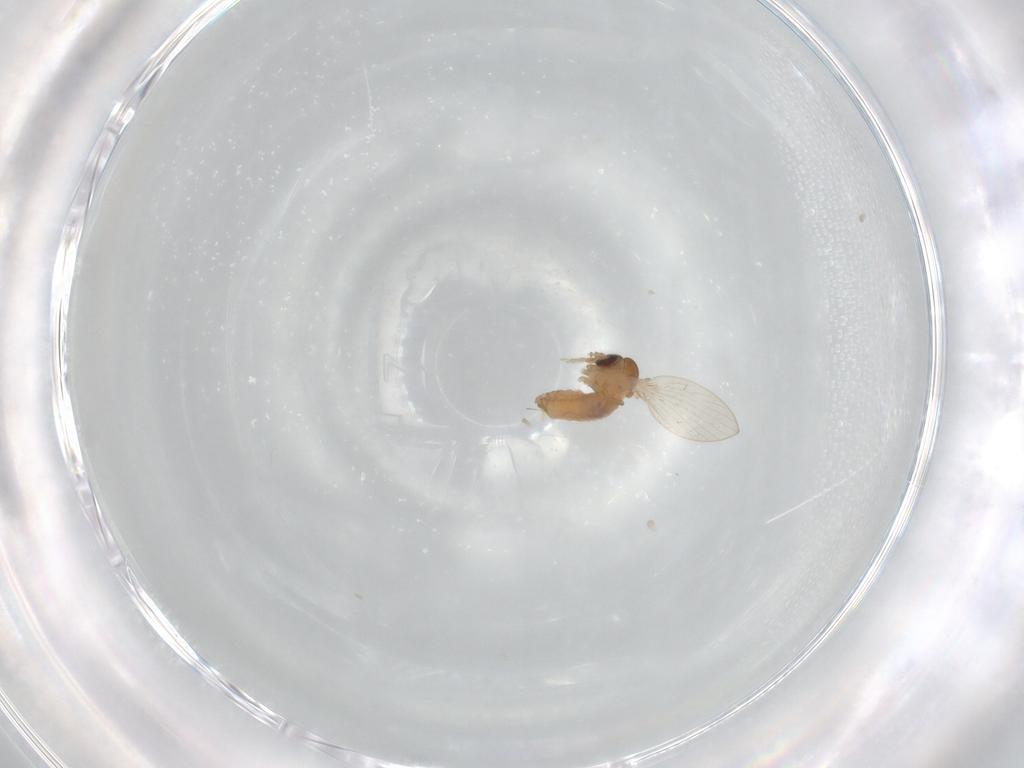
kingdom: Animalia
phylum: Arthropoda
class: Insecta
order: Diptera
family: Psychodidae
